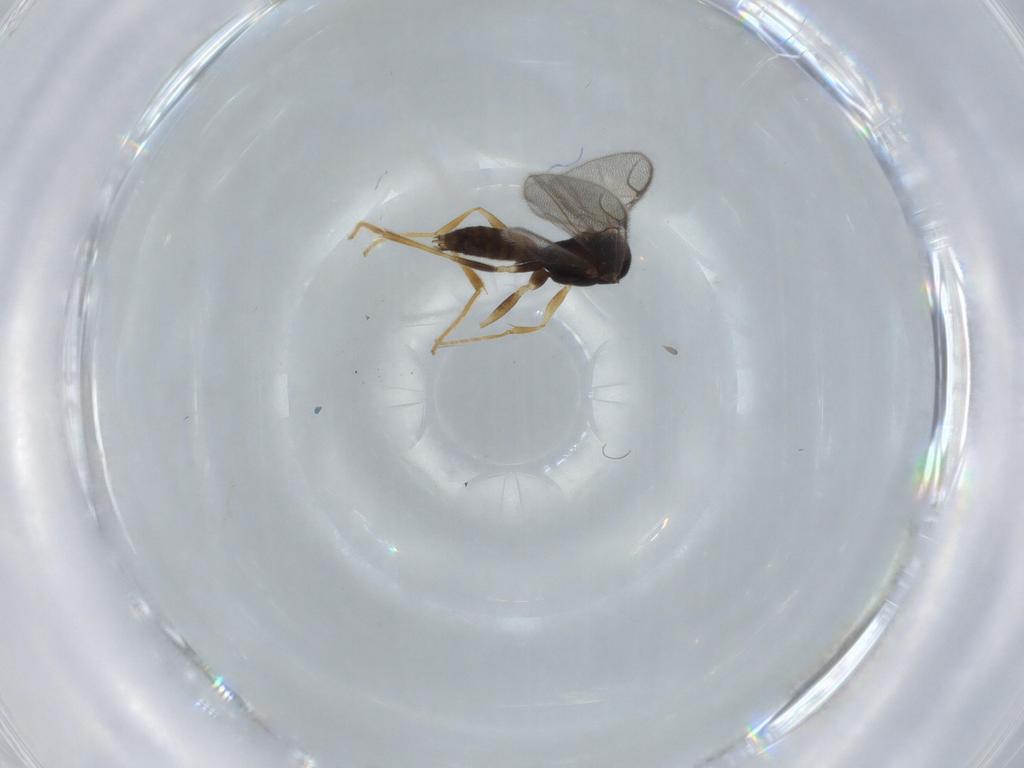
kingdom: Animalia
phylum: Arthropoda
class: Insecta
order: Hymenoptera
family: Dryinidae
